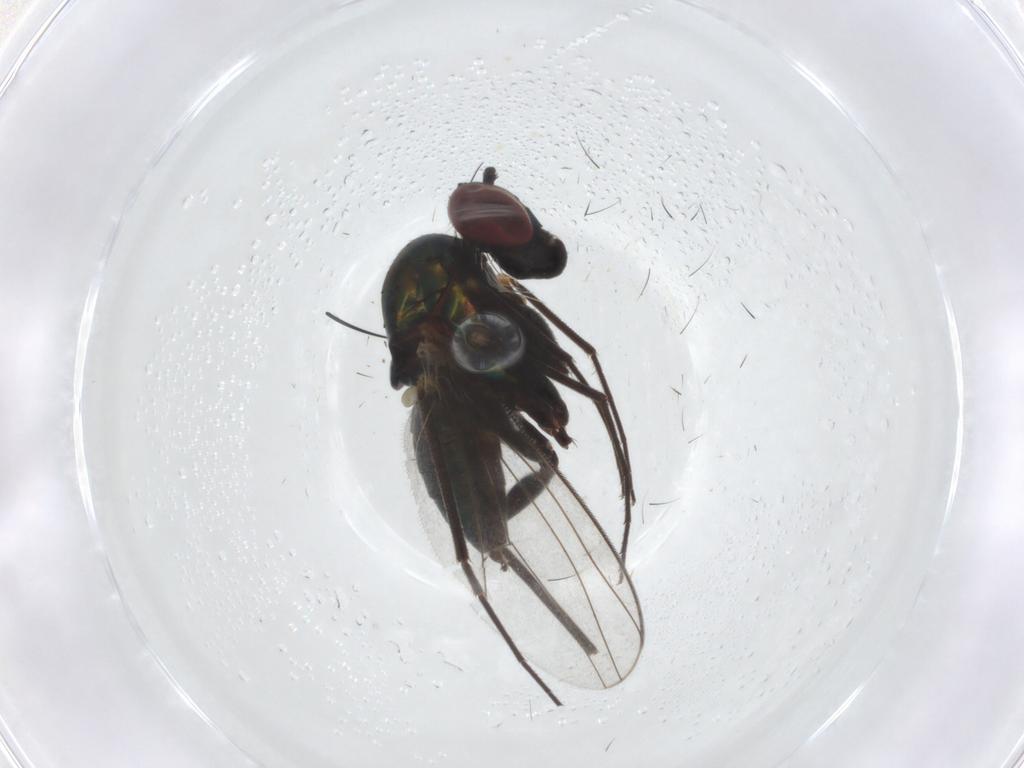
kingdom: Animalia
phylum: Arthropoda
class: Insecta
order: Diptera
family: Dolichopodidae
